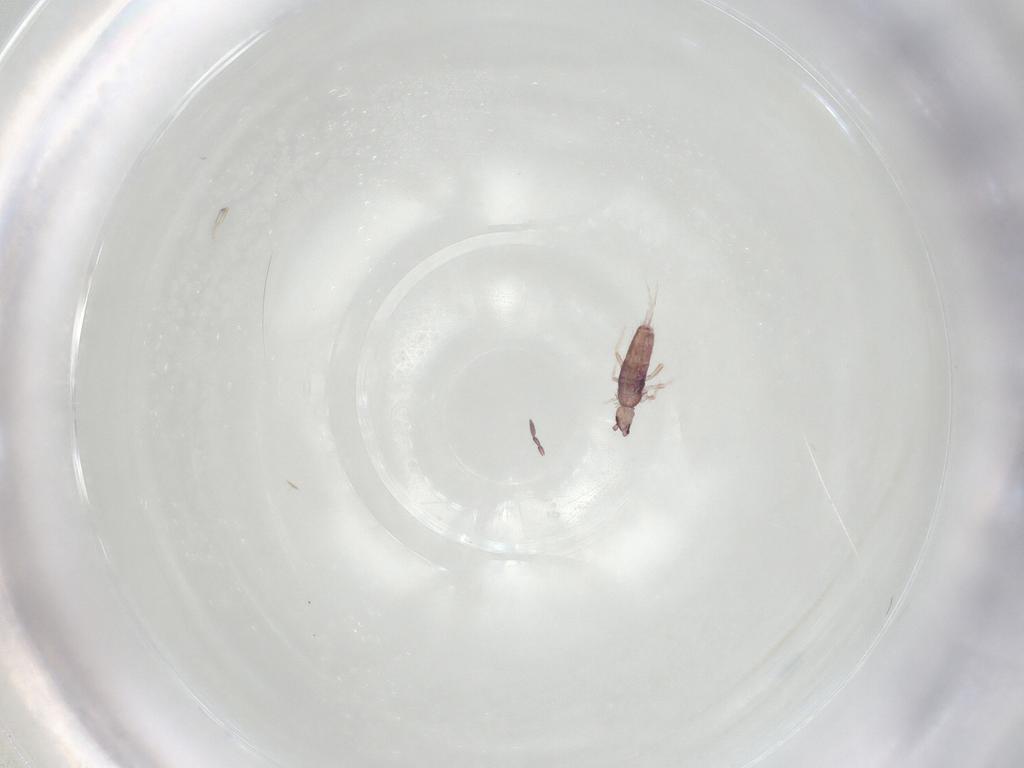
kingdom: Animalia
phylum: Arthropoda
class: Collembola
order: Entomobryomorpha
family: Entomobryidae
